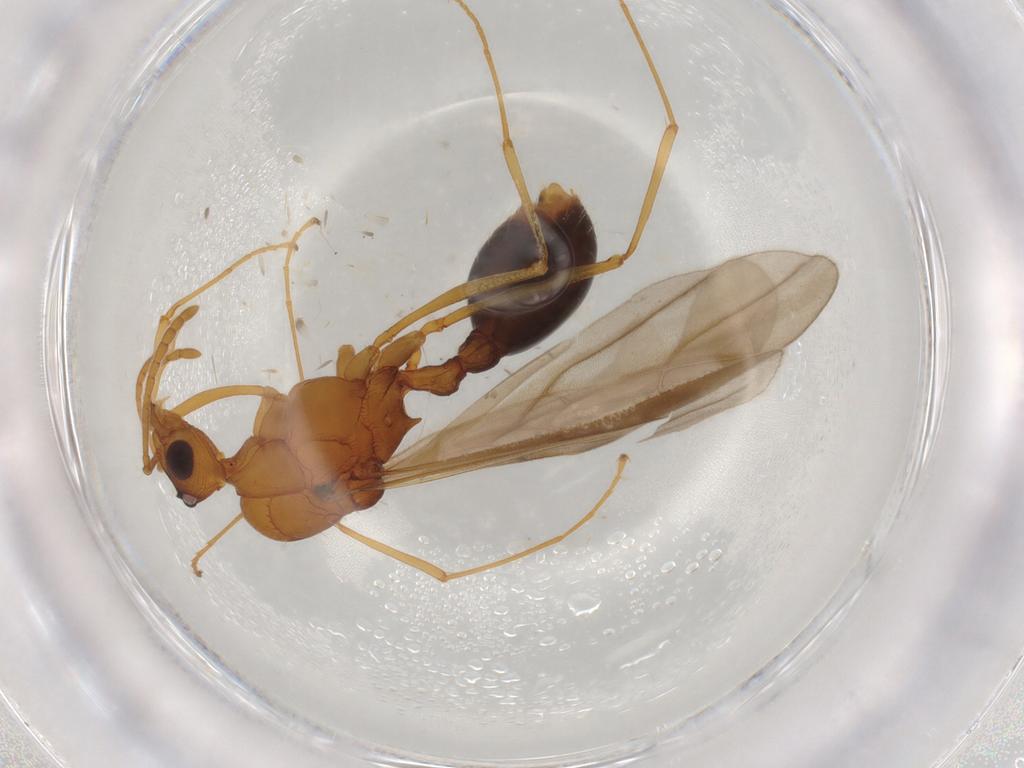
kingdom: Animalia
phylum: Arthropoda
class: Insecta
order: Hymenoptera
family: Formicidae
